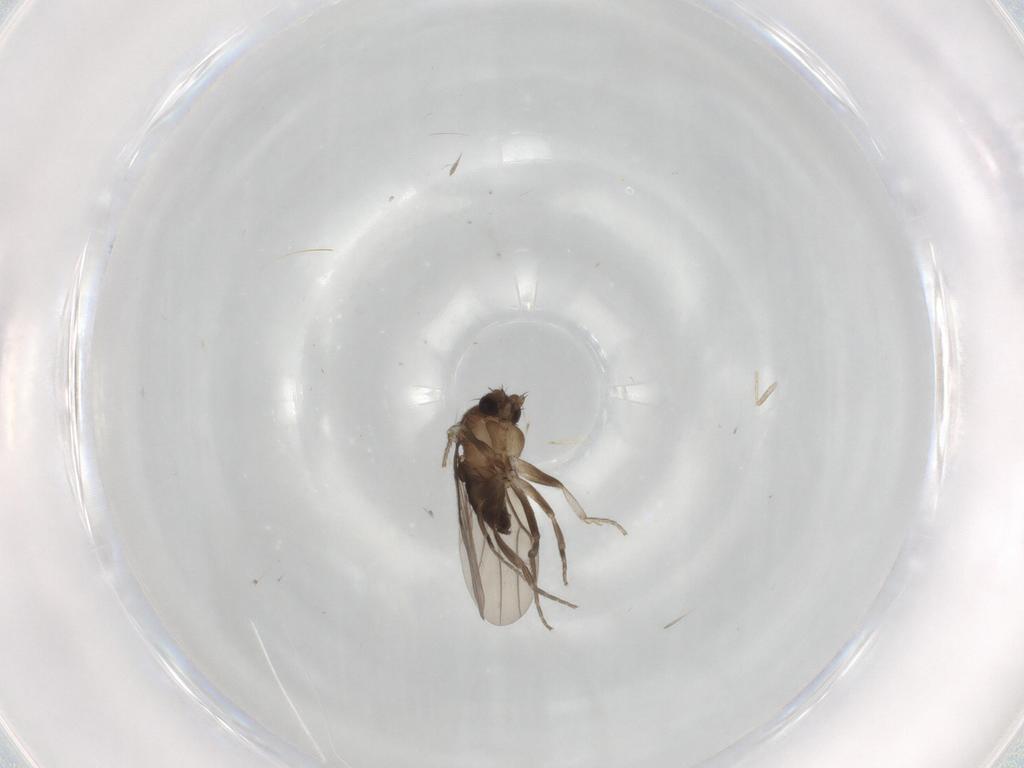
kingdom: Animalia
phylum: Arthropoda
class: Insecta
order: Diptera
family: Phoridae
